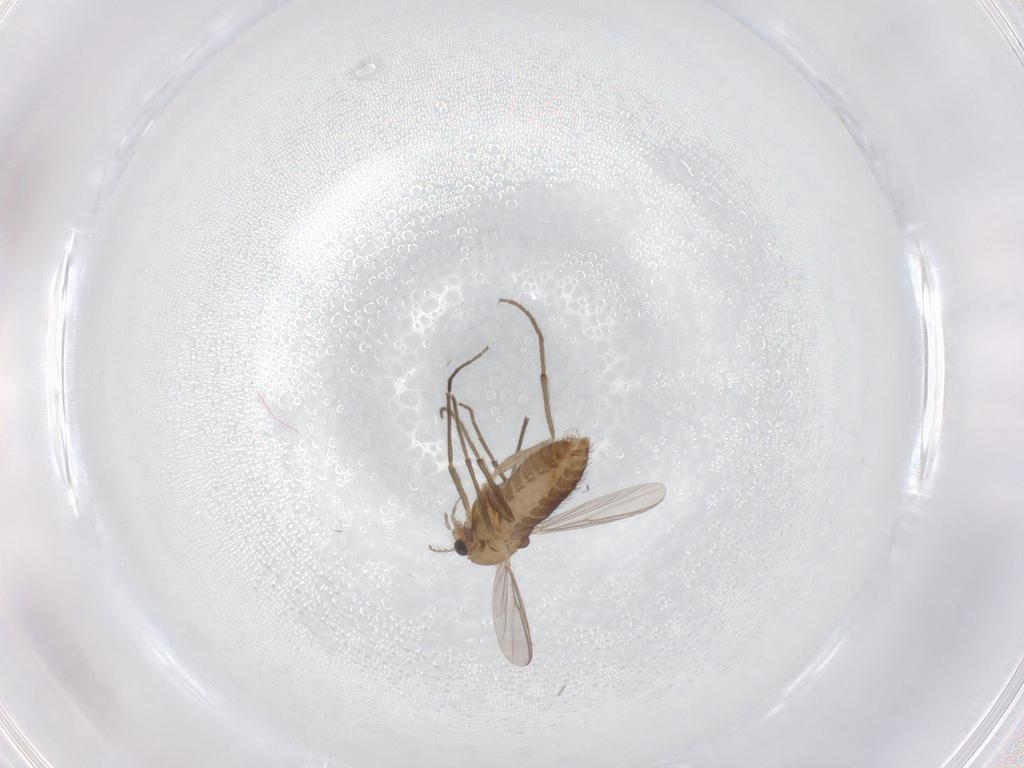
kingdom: Animalia
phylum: Arthropoda
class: Insecta
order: Diptera
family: Chironomidae
